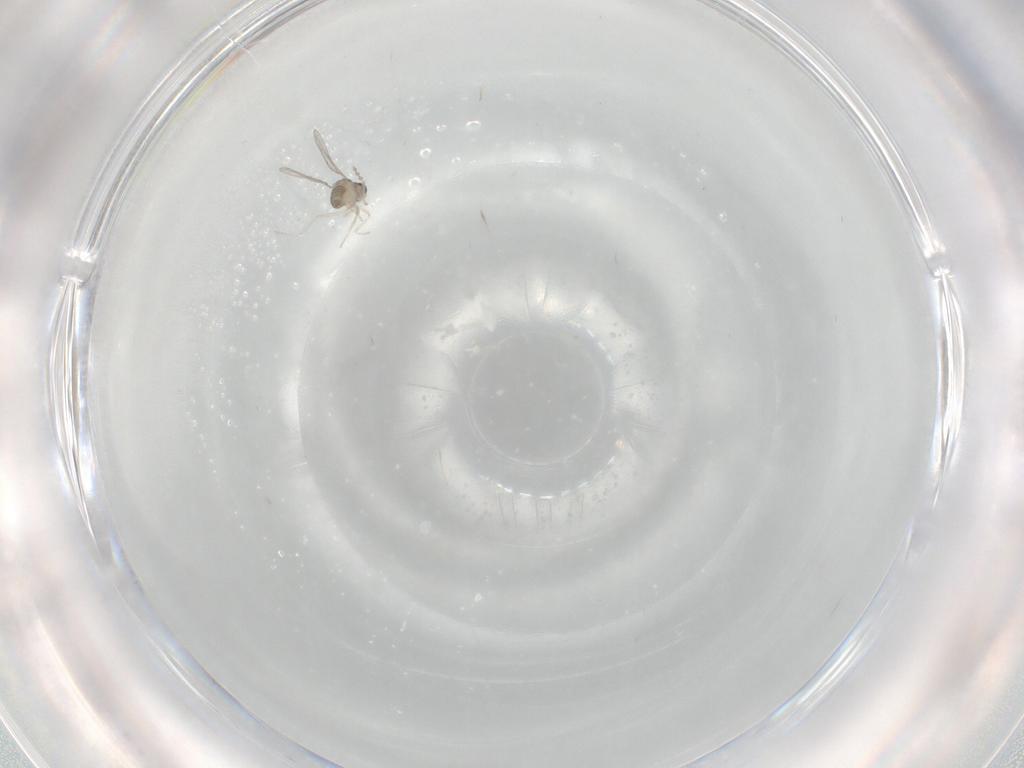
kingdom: Animalia
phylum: Arthropoda
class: Insecta
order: Diptera
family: Cecidomyiidae
